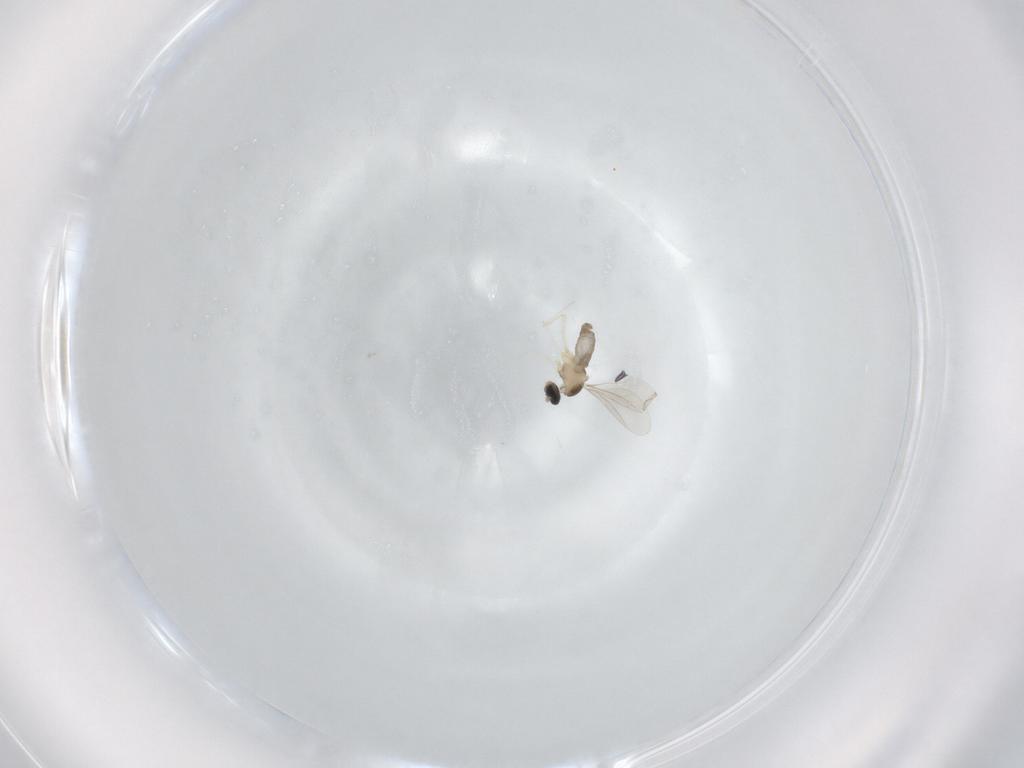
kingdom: Animalia
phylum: Arthropoda
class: Insecta
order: Diptera
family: Cecidomyiidae
